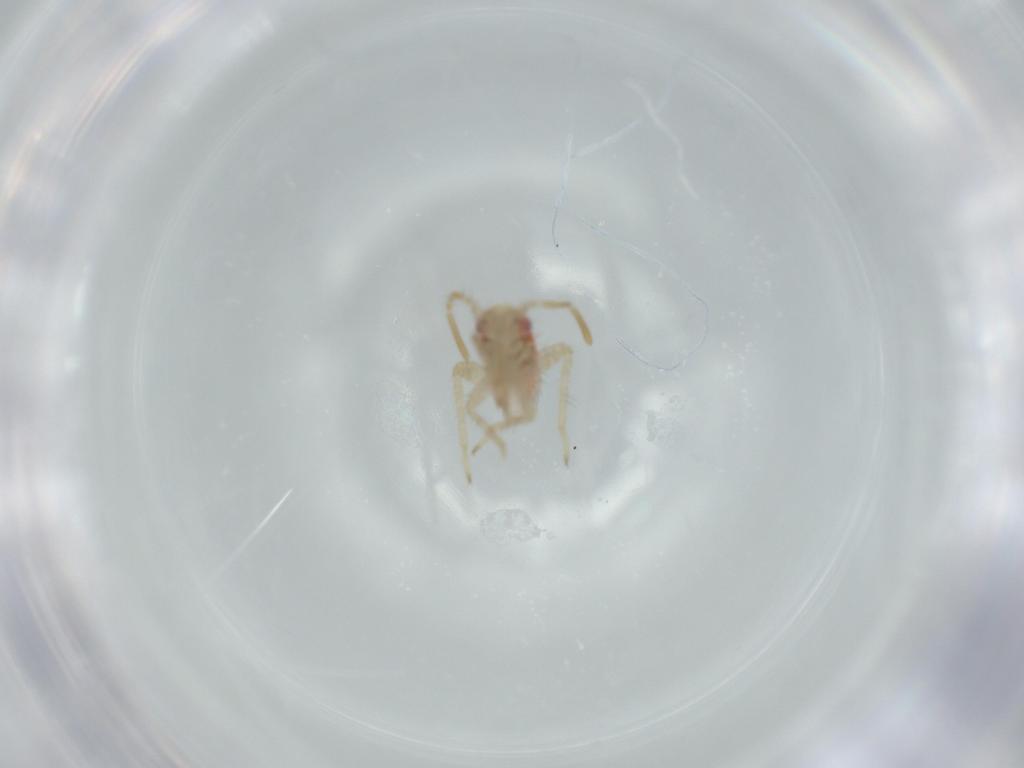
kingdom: Animalia
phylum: Arthropoda
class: Insecta
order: Hemiptera
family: Miridae
